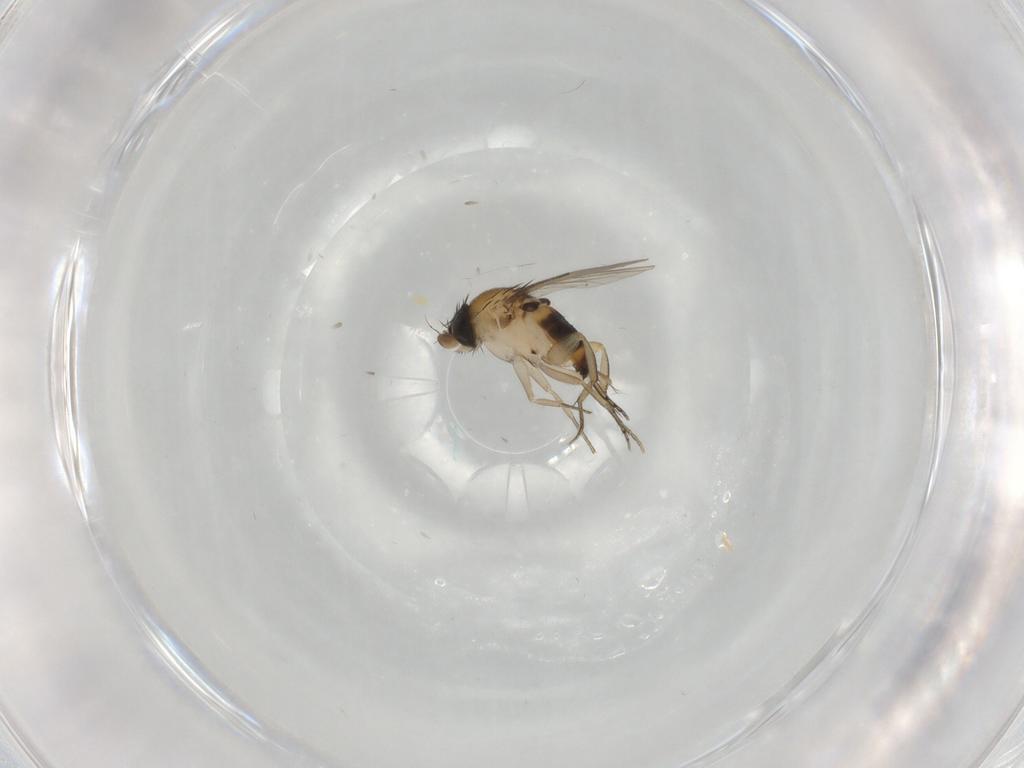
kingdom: Animalia
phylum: Arthropoda
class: Insecta
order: Diptera
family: Phoridae
